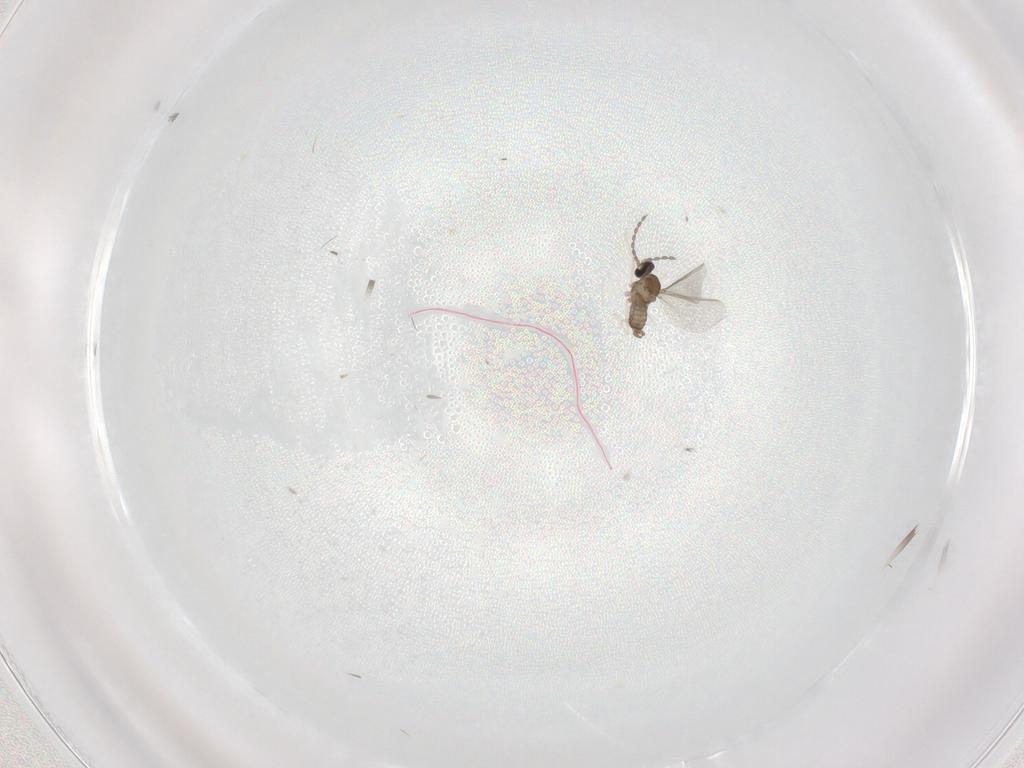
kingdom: Animalia
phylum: Arthropoda
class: Insecta
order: Diptera
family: Cecidomyiidae
